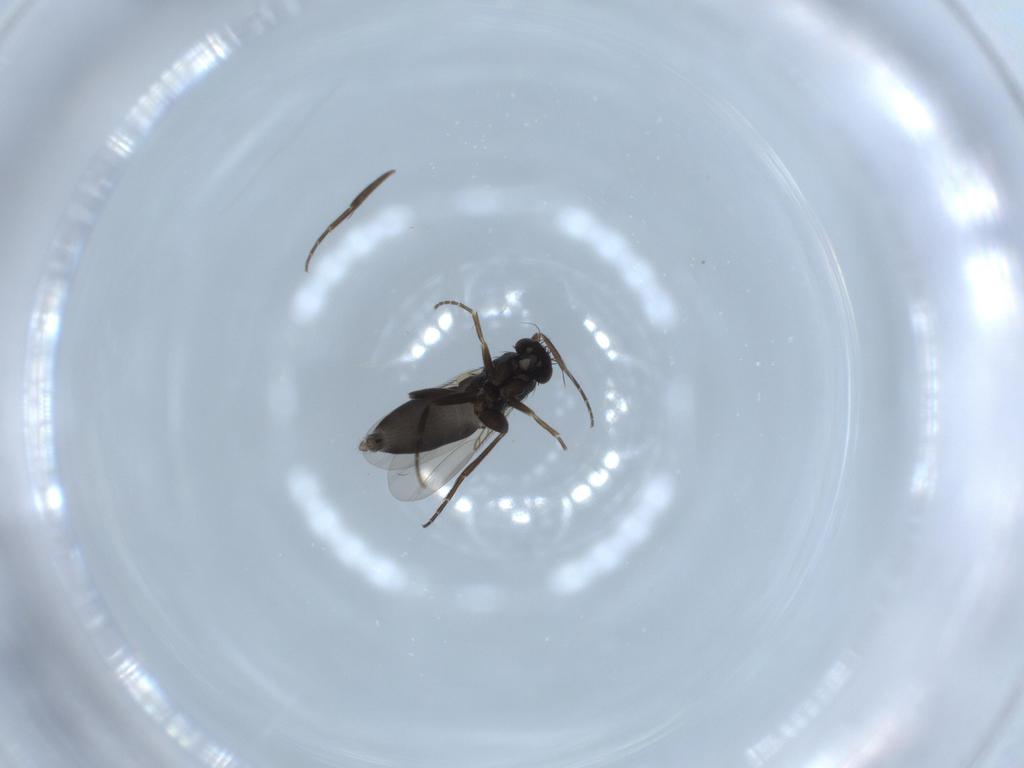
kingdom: Animalia
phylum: Arthropoda
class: Insecta
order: Diptera
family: Phoridae
